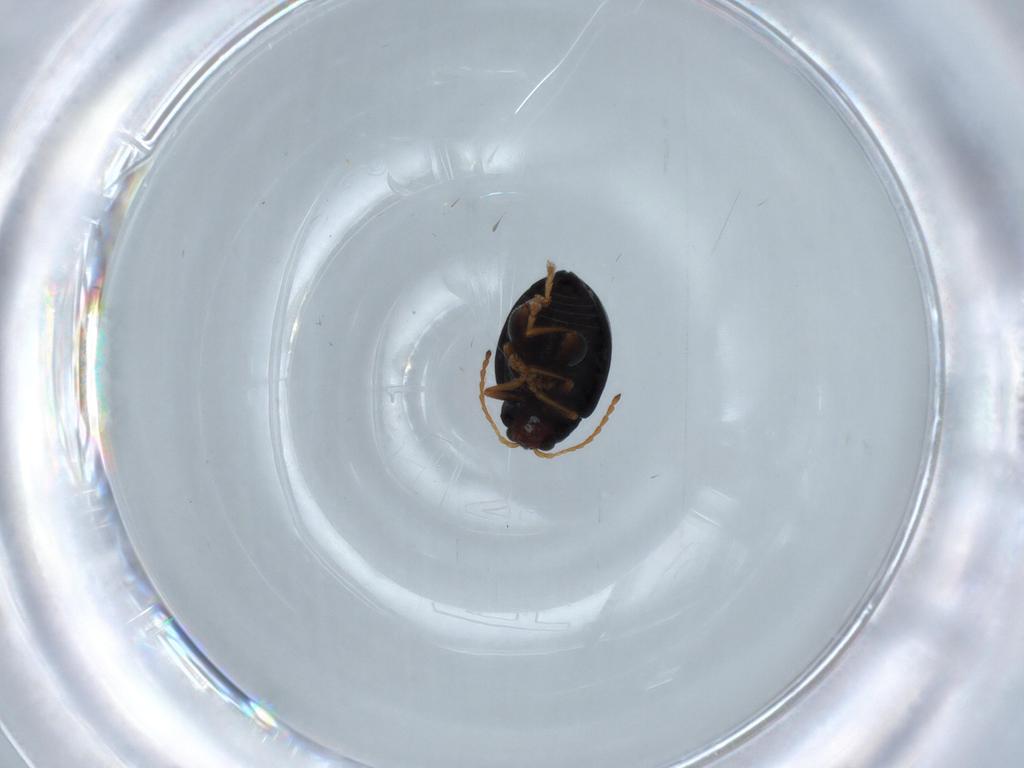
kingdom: Animalia
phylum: Arthropoda
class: Insecta
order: Coleoptera
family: Chrysomelidae
